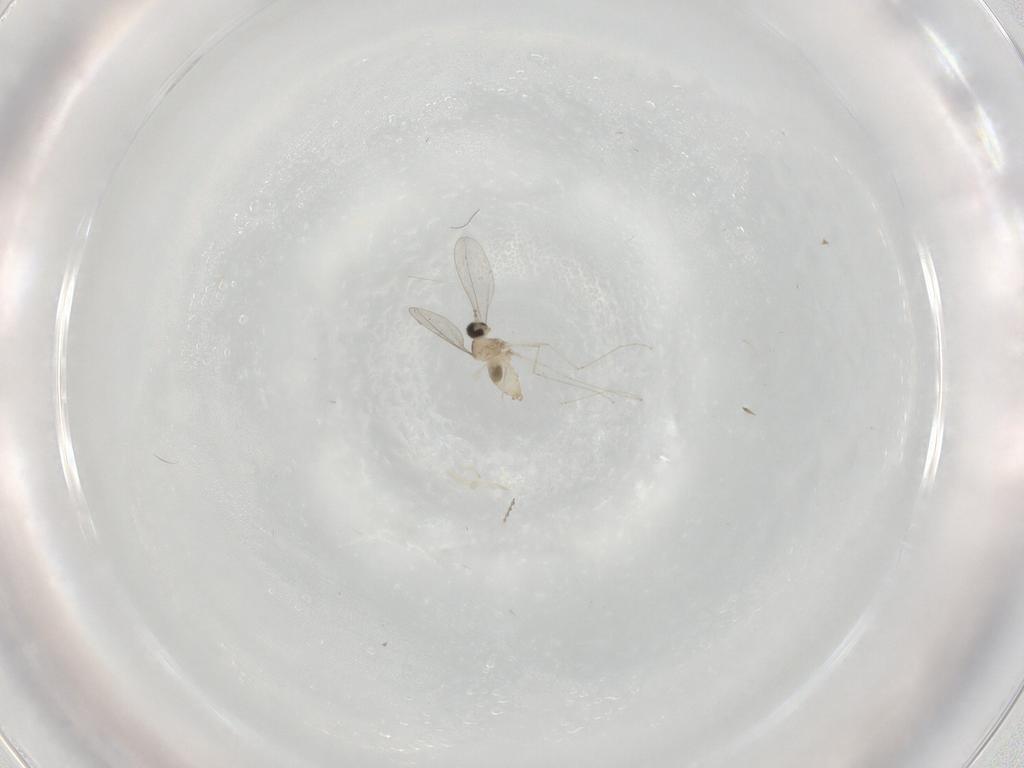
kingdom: Animalia
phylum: Arthropoda
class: Insecta
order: Diptera
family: Cecidomyiidae
